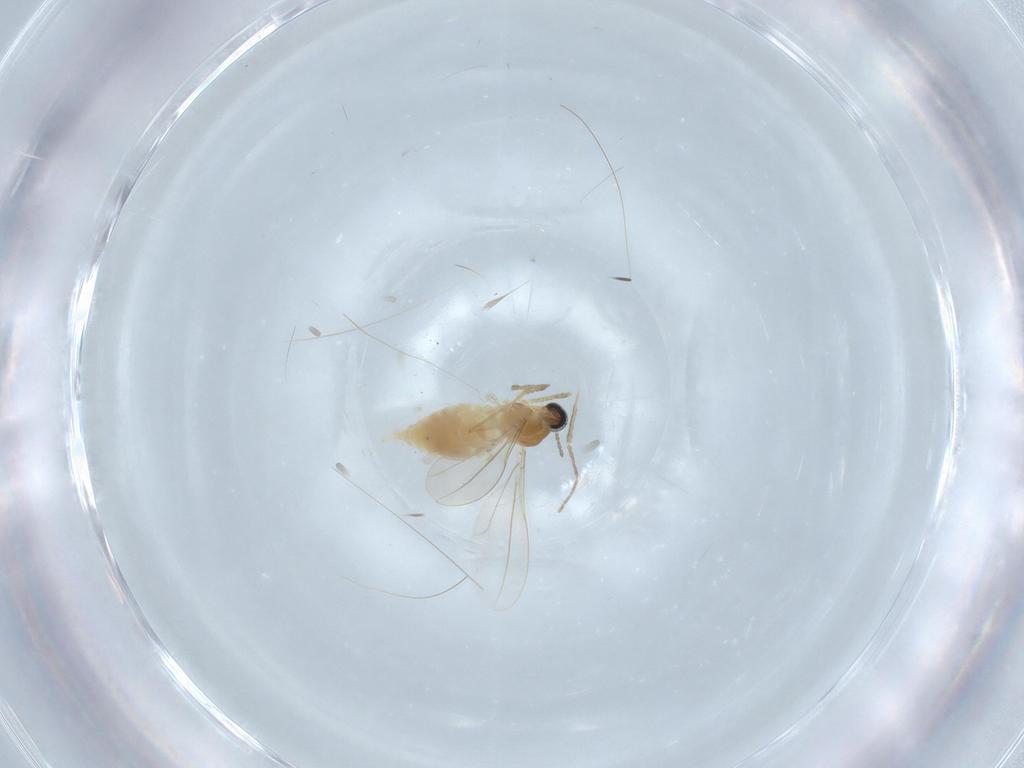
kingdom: Animalia
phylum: Arthropoda
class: Insecta
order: Diptera
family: Cecidomyiidae
